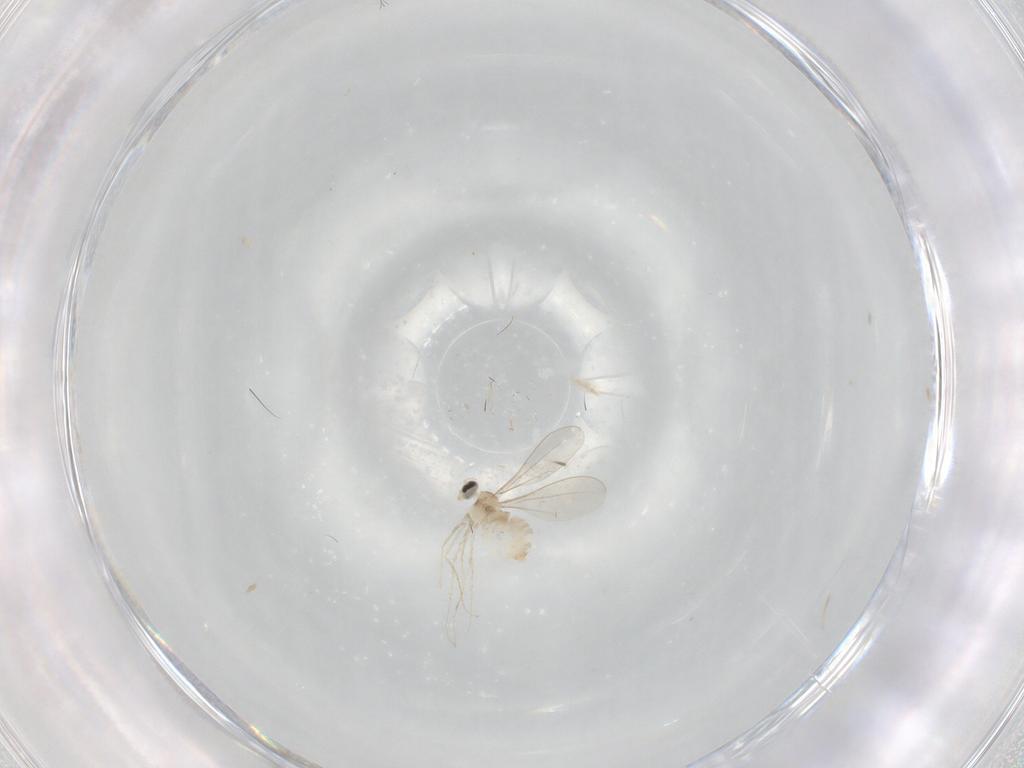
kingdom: Animalia
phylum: Arthropoda
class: Insecta
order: Diptera
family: Cecidomyiidae
